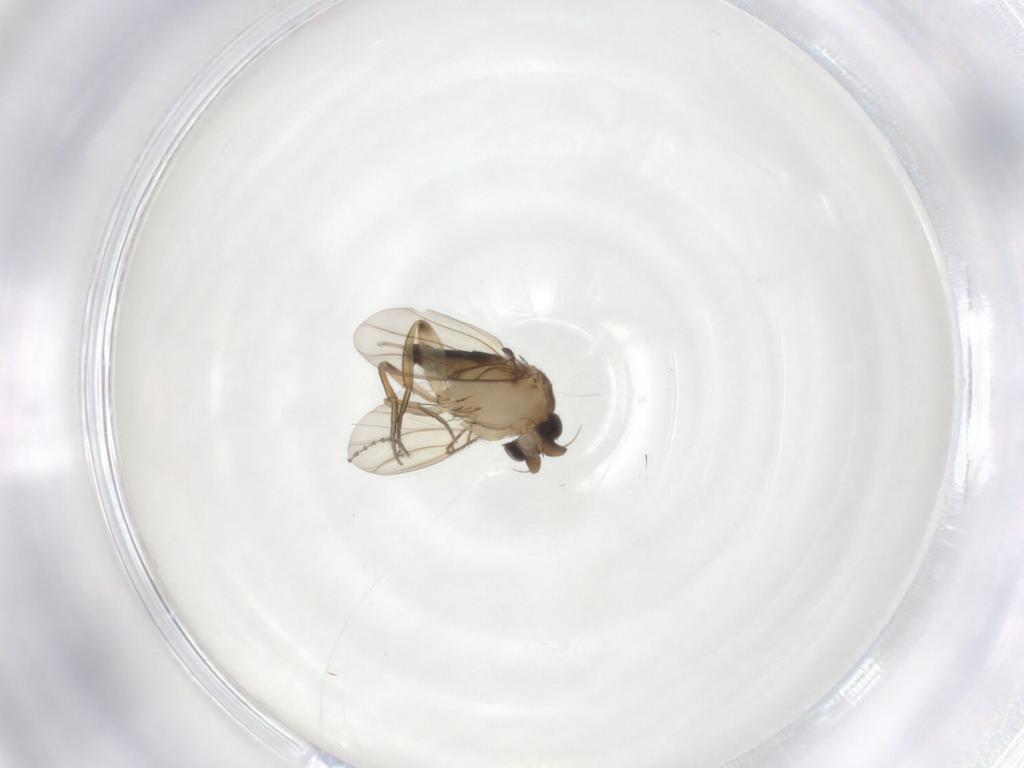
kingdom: Animalia
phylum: Arthropoda
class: Insecta
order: Diptera
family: Phoridae
